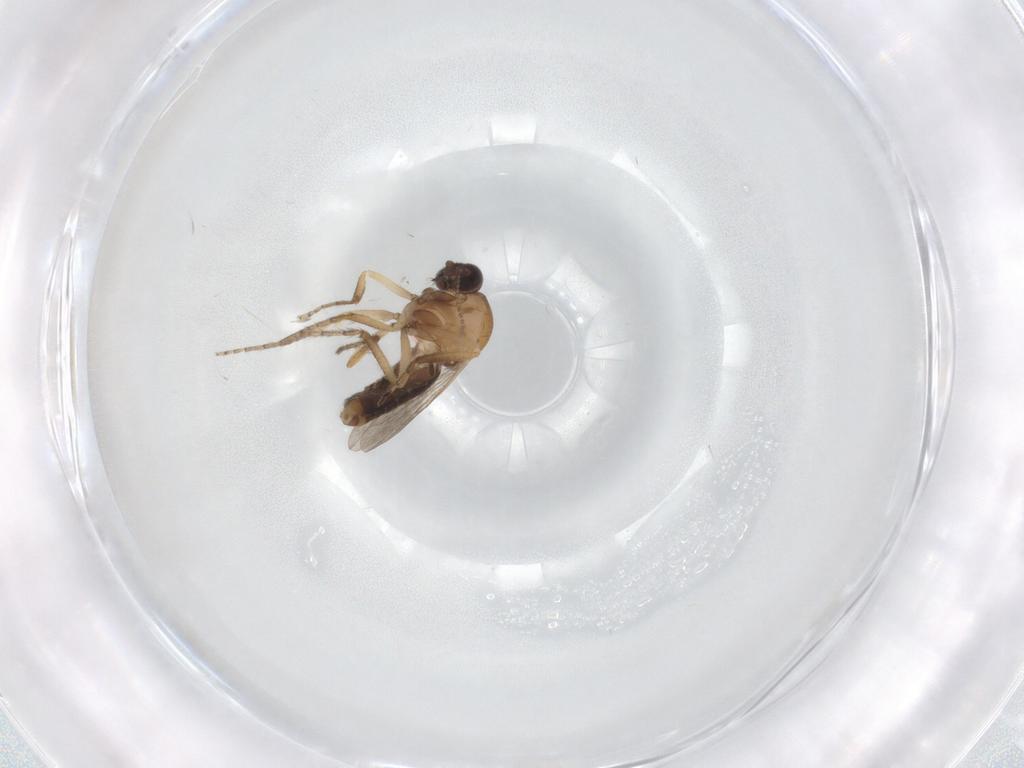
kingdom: Animalia
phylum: Arthropoda
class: Insecta
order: Diptera
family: Ceratopogonidae
